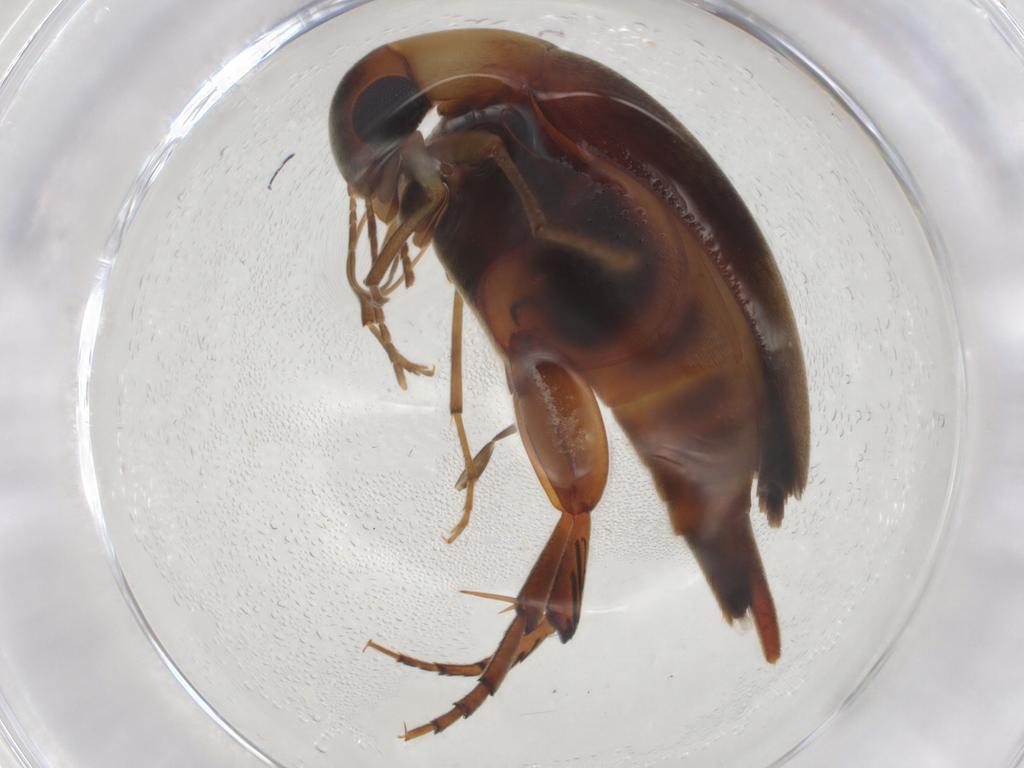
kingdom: Animalia
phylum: Arthropoda
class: Insecta
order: Coleoptera
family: Mordellidae
